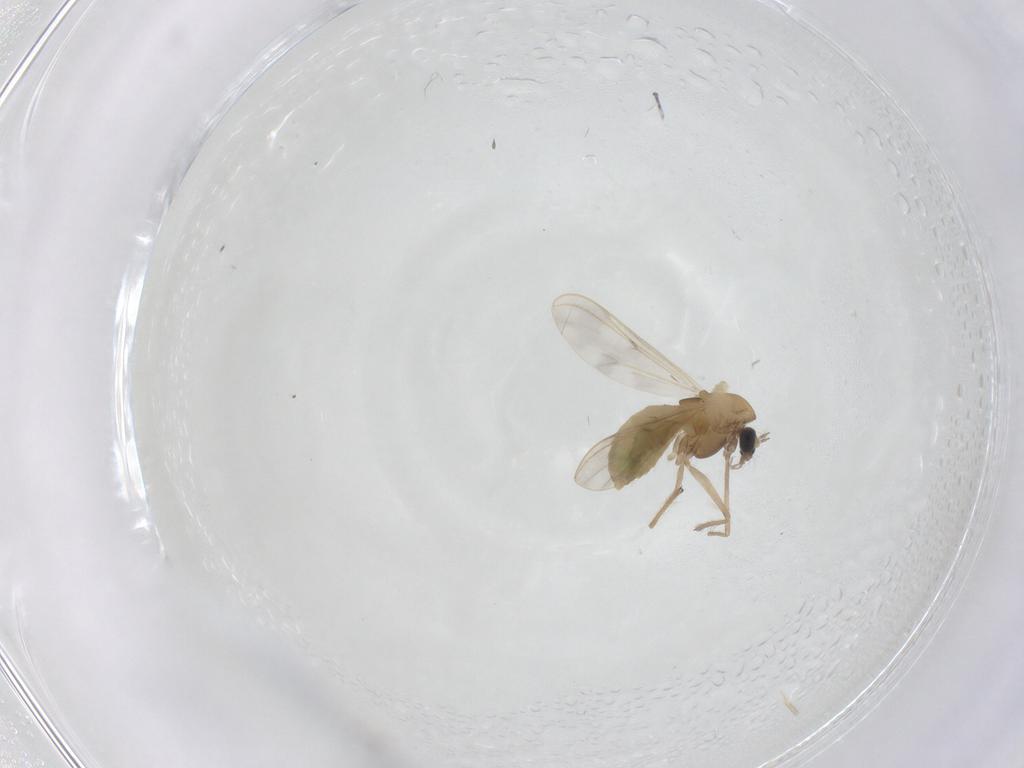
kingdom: Animalia
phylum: Arthropoda
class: Insecta
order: Diptera
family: Chironomidae
